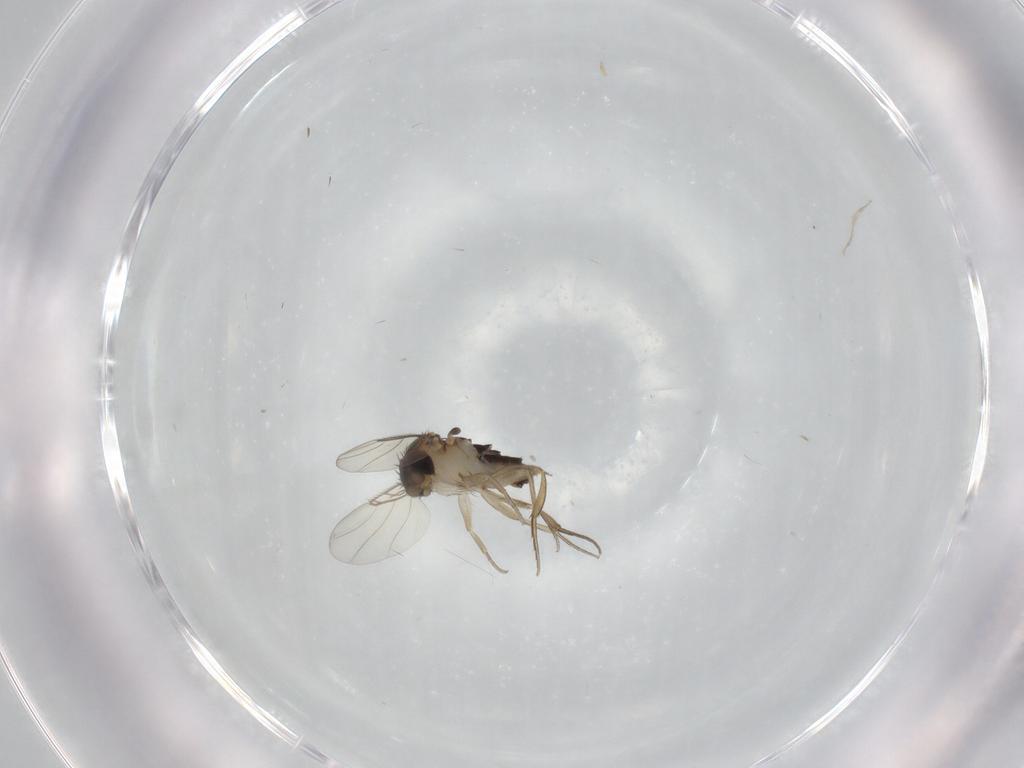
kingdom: Animalia
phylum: Arthropoda
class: Insecta
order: Diptera
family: Phoridae
